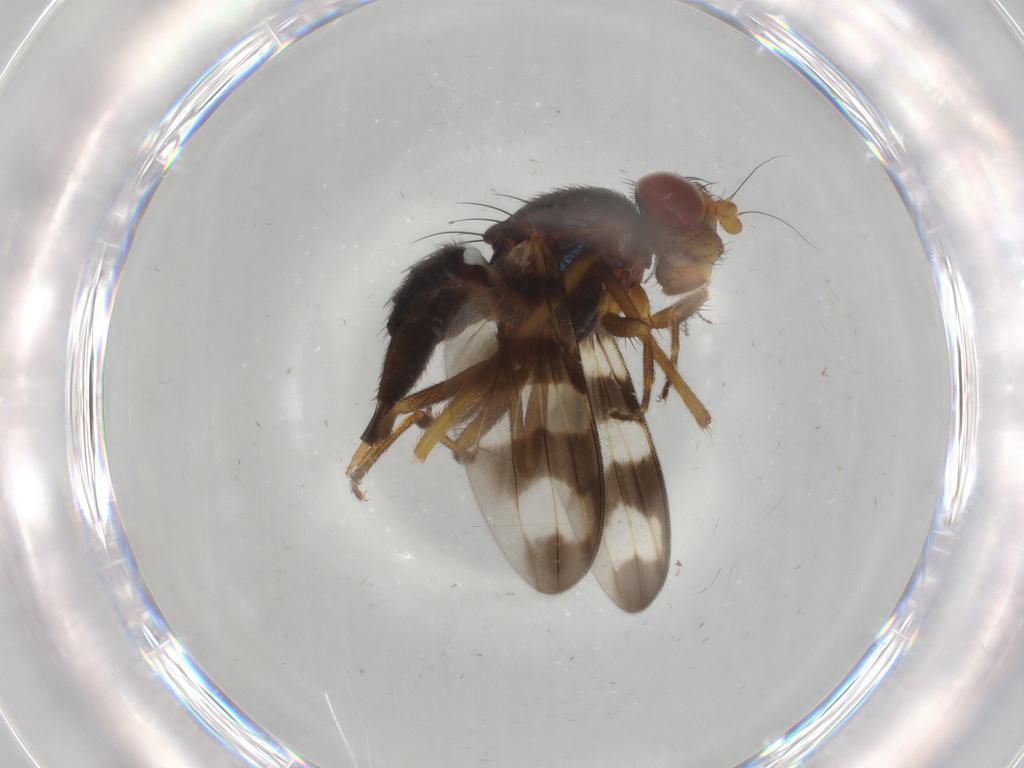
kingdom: Animalia
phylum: Arthropoda
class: Insecta
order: Diptera
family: Ulidiidae
